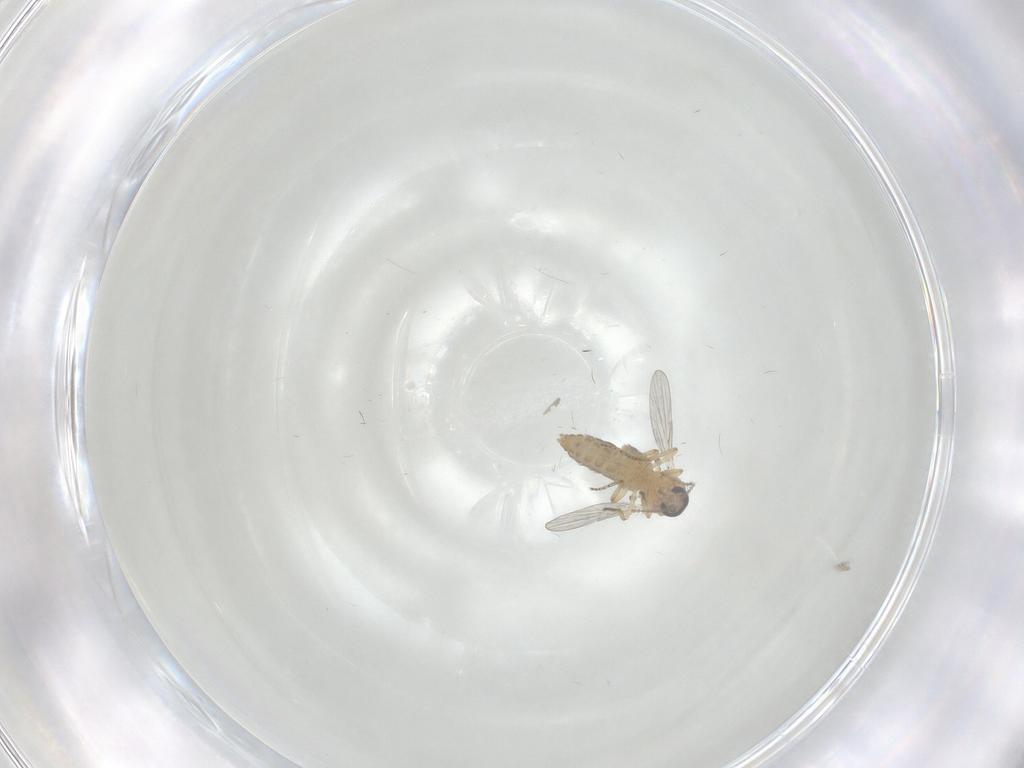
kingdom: Animalia
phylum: Arthropoda
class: Insecta
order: Diptera
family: Ceratopogonidae
